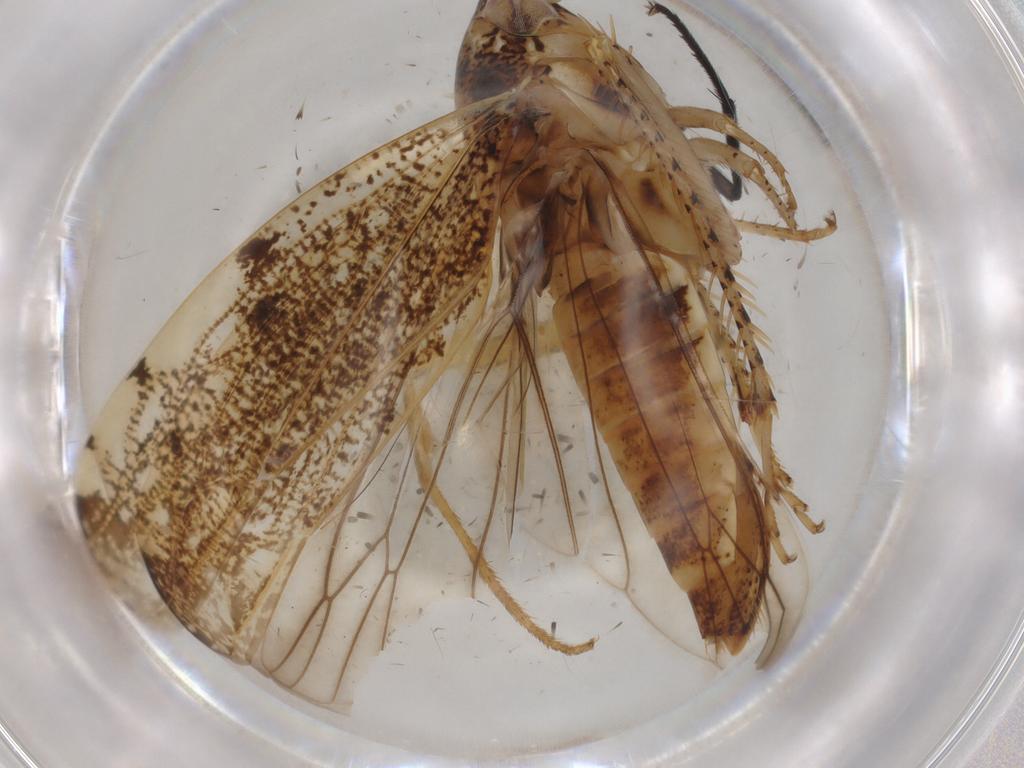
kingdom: Animalia
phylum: Arthropoda
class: Insecta
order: Hemiptera
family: Cicadellidae
